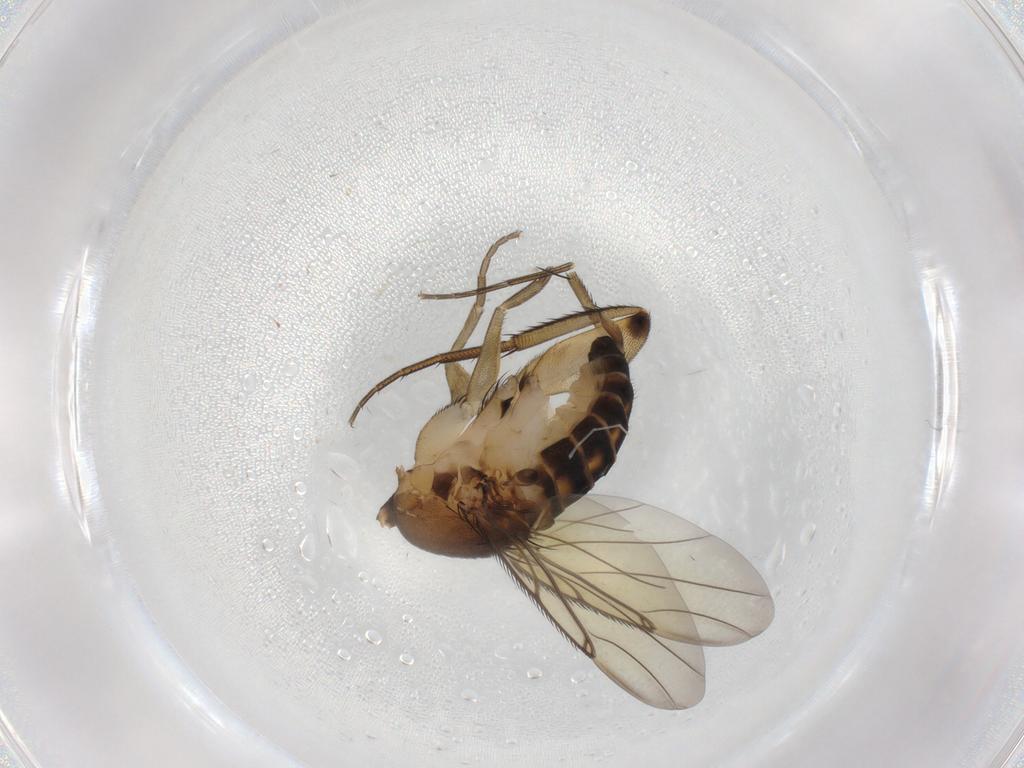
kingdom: Animalia
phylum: Arthropoda
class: Insecta
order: Diptera
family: Phoridae
